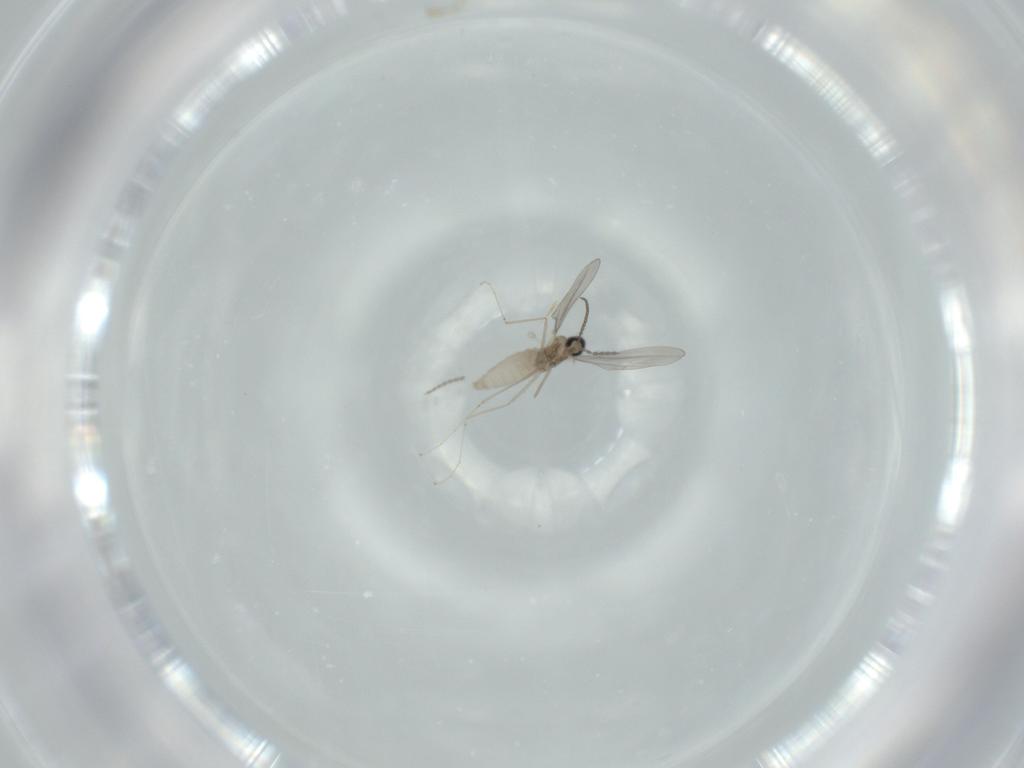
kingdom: Animalia
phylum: Arthropoda
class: Insecta
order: Diptera
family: Cecidomyiidae
